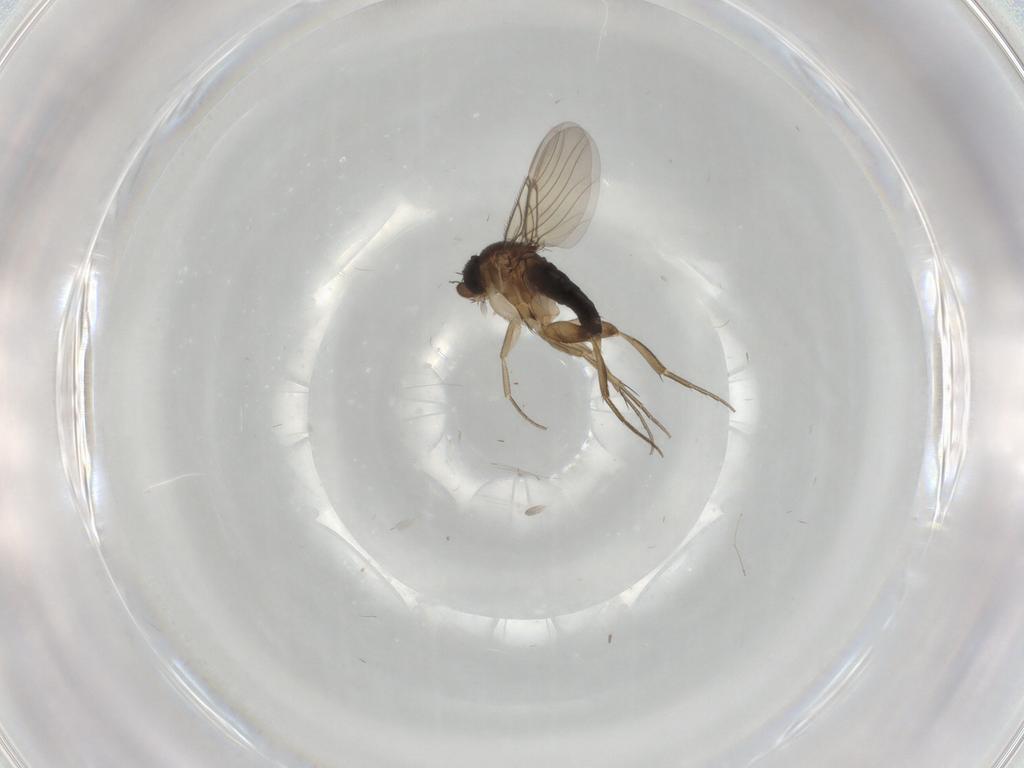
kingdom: Animalia
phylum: Arthropoda
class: Insecta
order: Diptera
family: Phoridae
